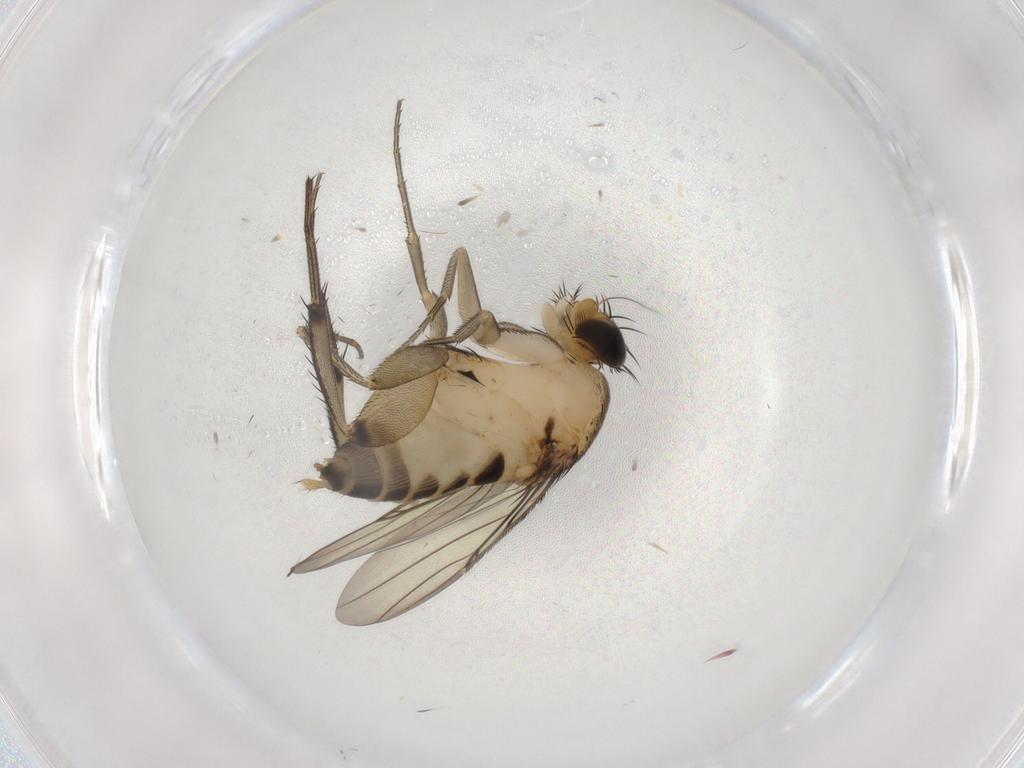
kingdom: Animalia
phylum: Arthropoda
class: Insecta
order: Diptera
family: Phoridae
